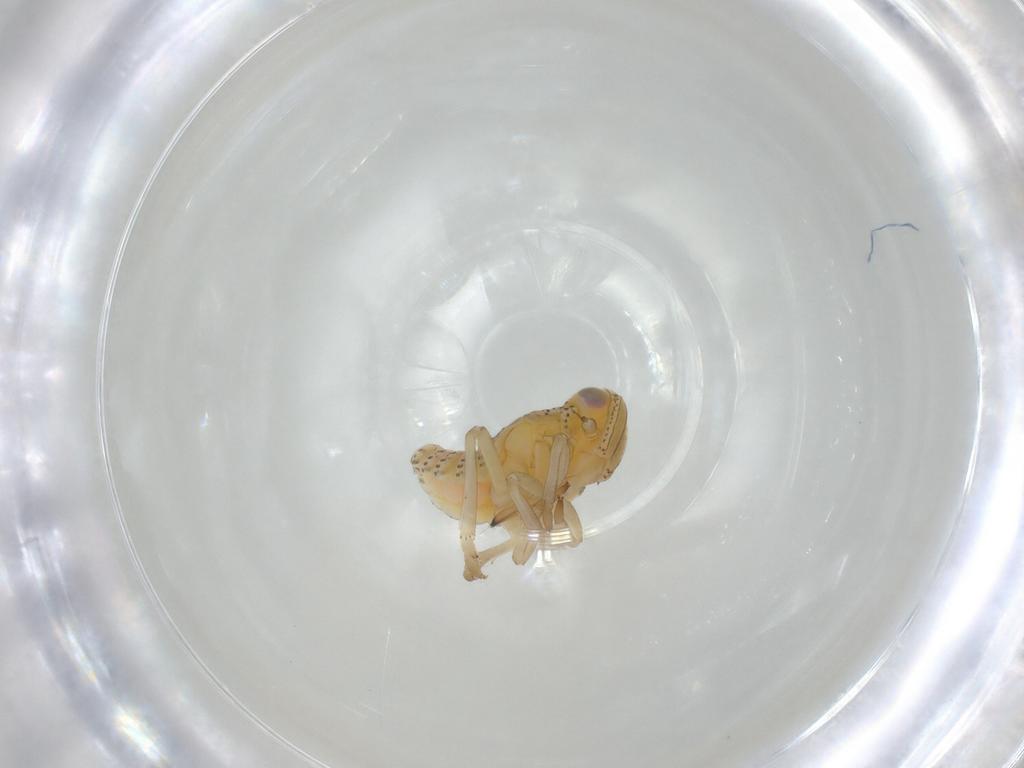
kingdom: Animalia
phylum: Arthropoda
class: Insecta
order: Hemiptera
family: Tropiduchidae
